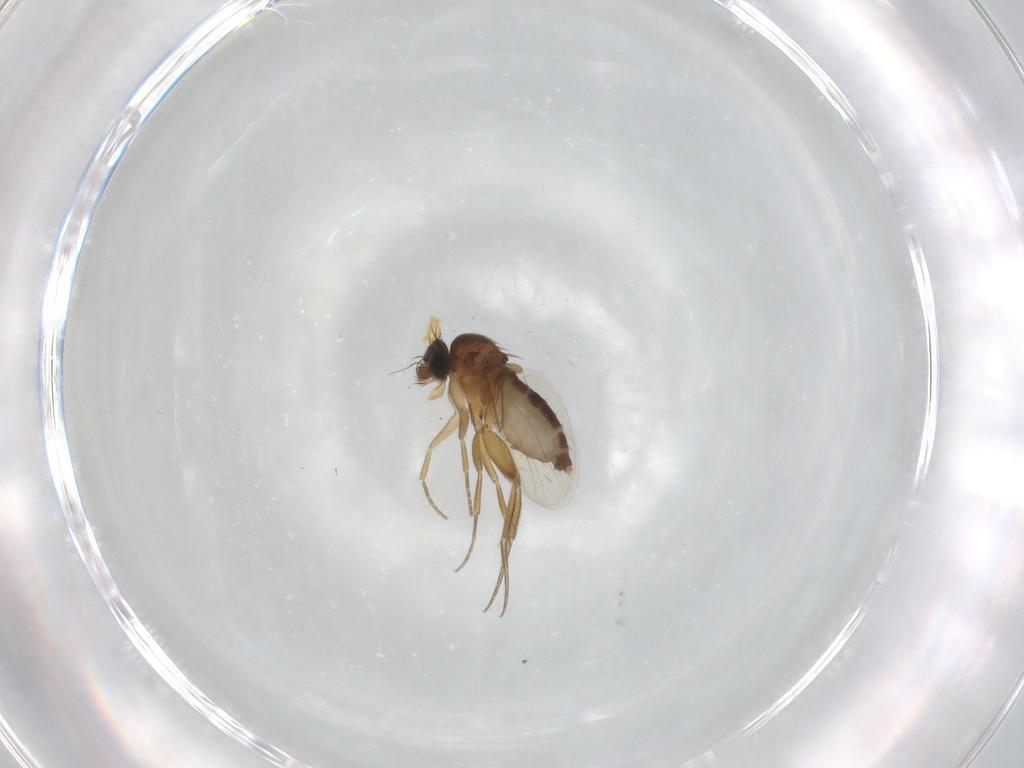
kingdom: Animalia
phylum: Arthropoda
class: Insecta
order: Diptera
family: Phoridae
